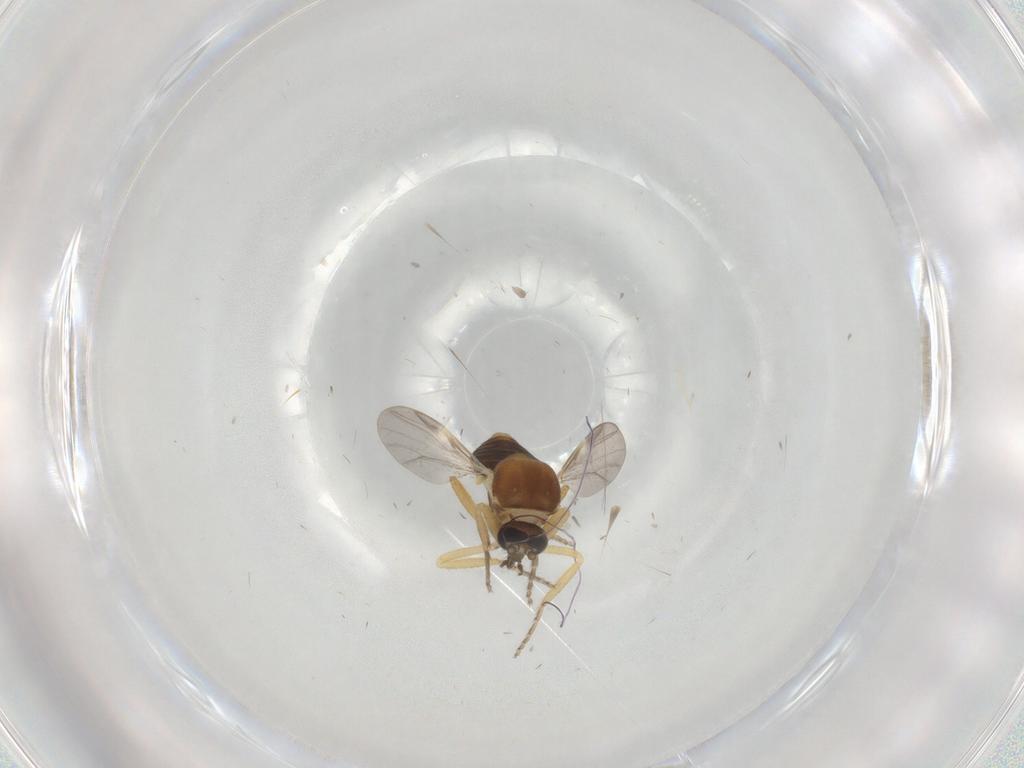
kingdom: Animalia
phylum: Arthropoda
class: Insecta
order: Diptera
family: Ceratopogonidae
